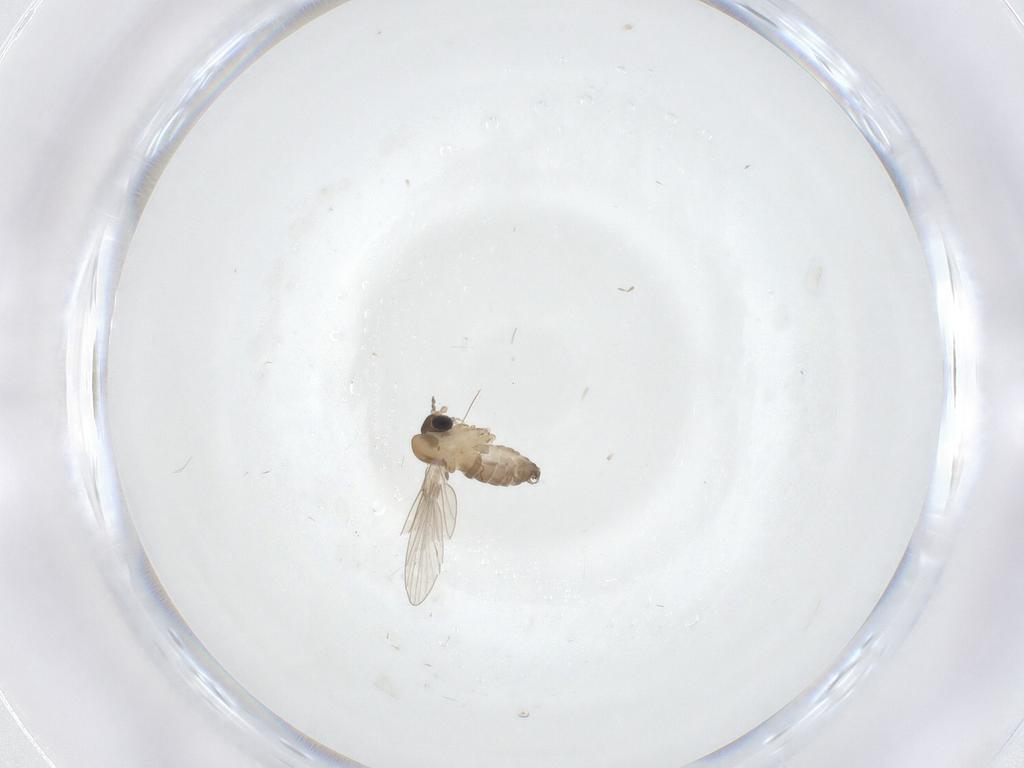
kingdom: Animalia
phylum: Arthropoda
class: Insecta
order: Diptera
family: Psychodidae
